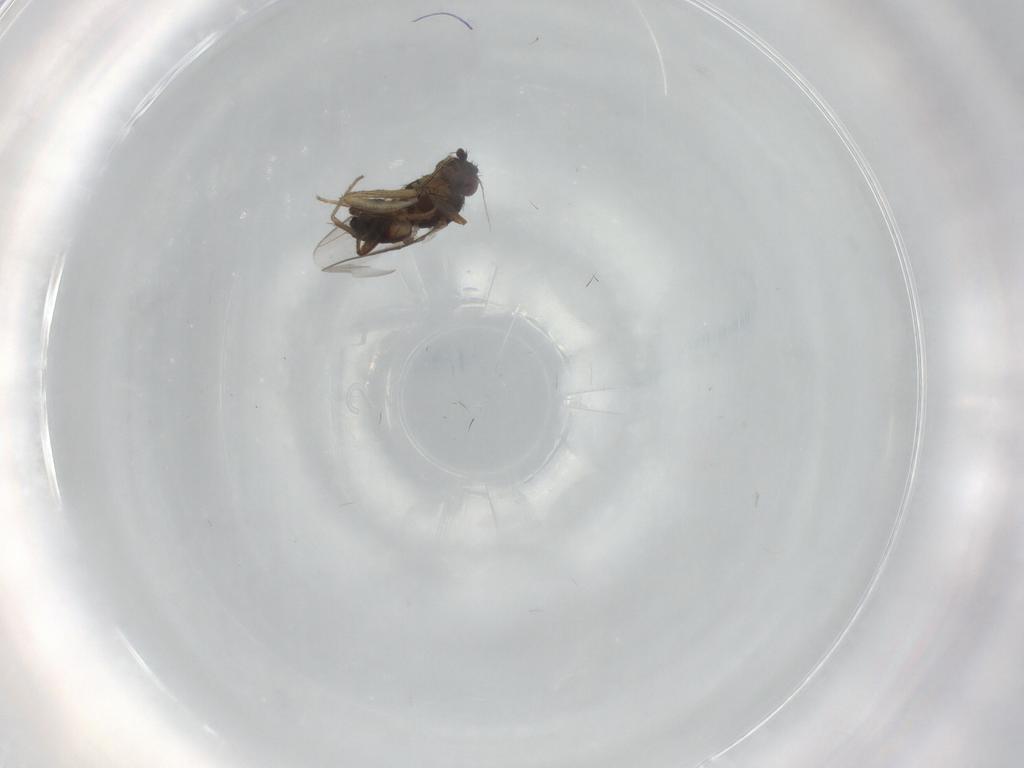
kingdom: Animalia
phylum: Arthropoda
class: Insecta
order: Diptera
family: Sphaeroceridae
